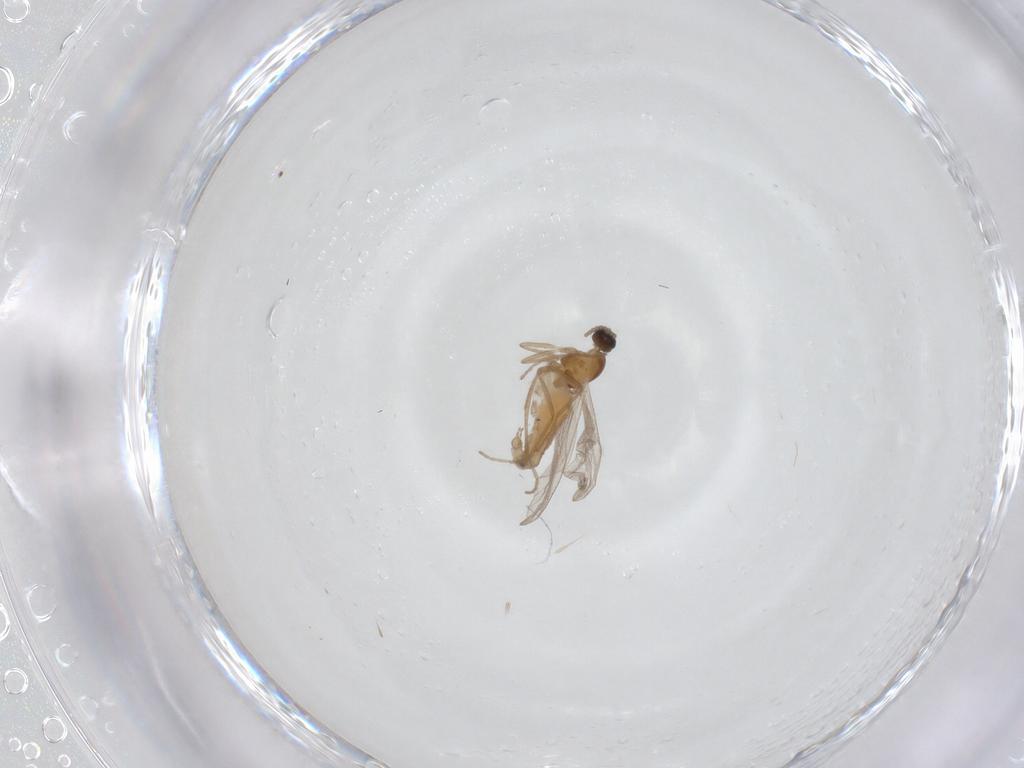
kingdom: Animalia
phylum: Arthropoda
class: Insecta
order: Diptera
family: Cecidomyiidae
